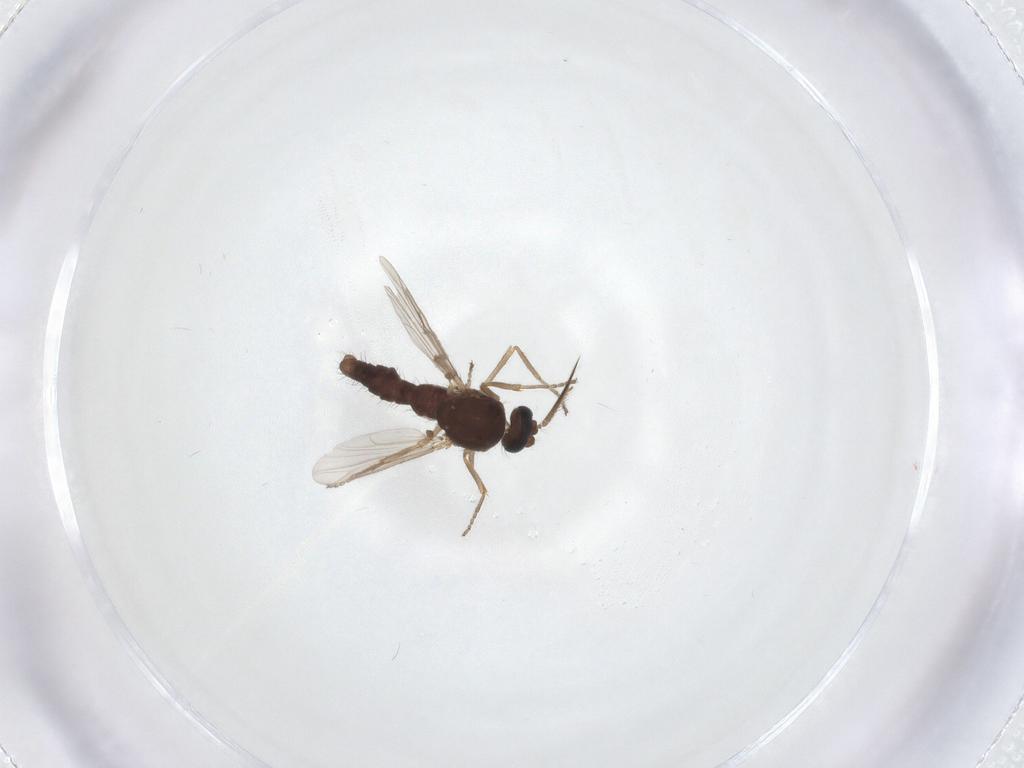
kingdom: Animalia
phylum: Arthropoda
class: Insecta
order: Diptera
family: Ceratopogonidae
